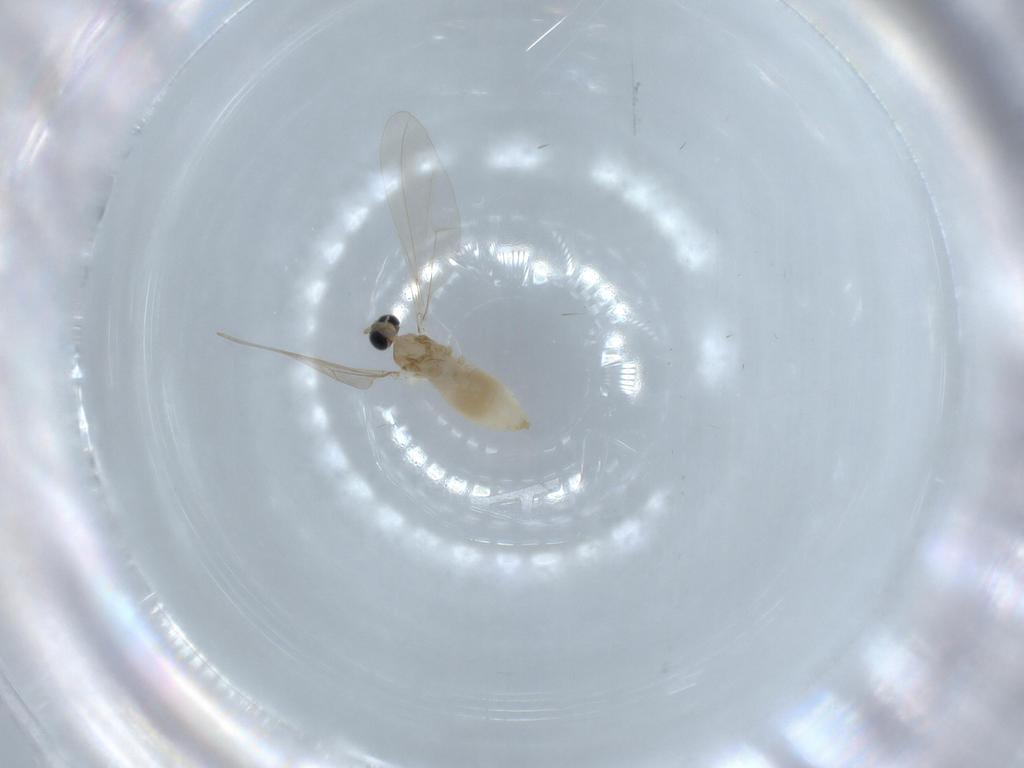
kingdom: Animalia
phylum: Arthropoda
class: Insecta
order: Diptera
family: Cecidomyiidae
